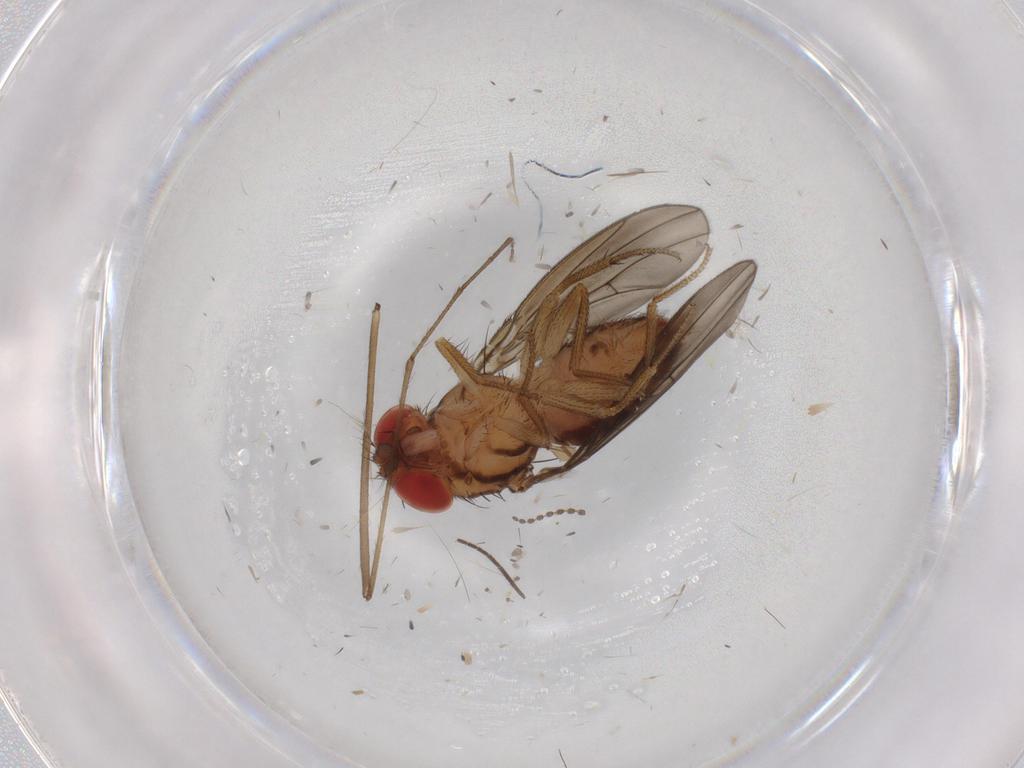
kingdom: Animalia
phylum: Arthropoda
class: Insecta
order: Diptera
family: Drosophilidae
